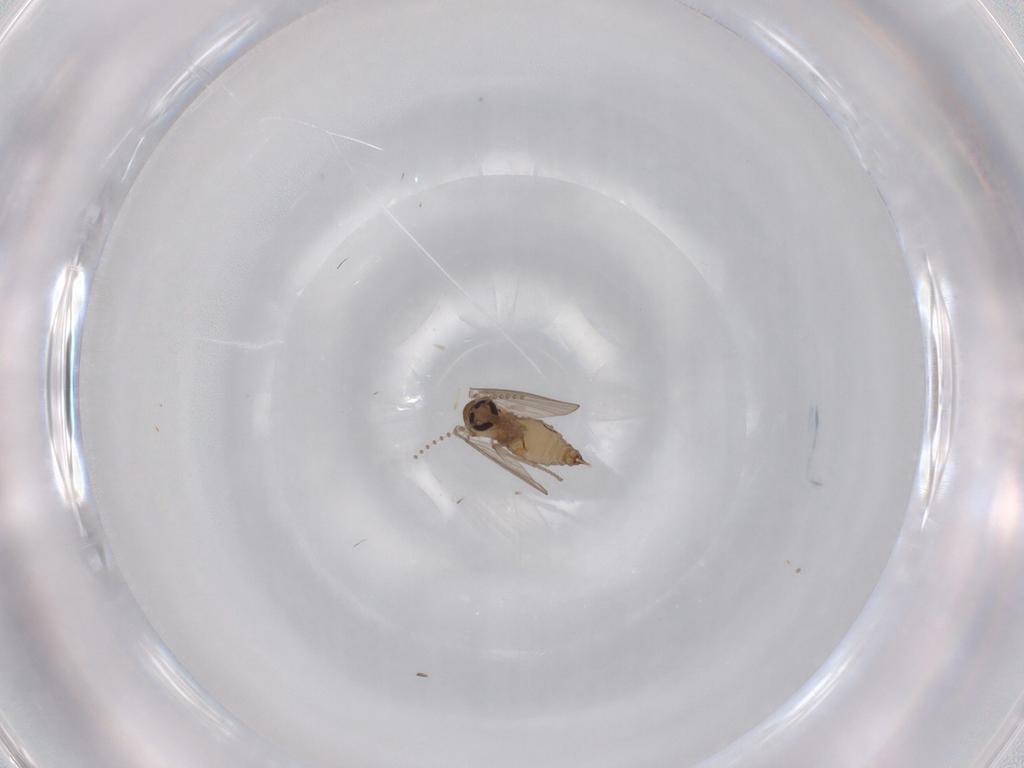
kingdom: Animalia
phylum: Arthropoda
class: Insecta
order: Diptera
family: Psychodidae
